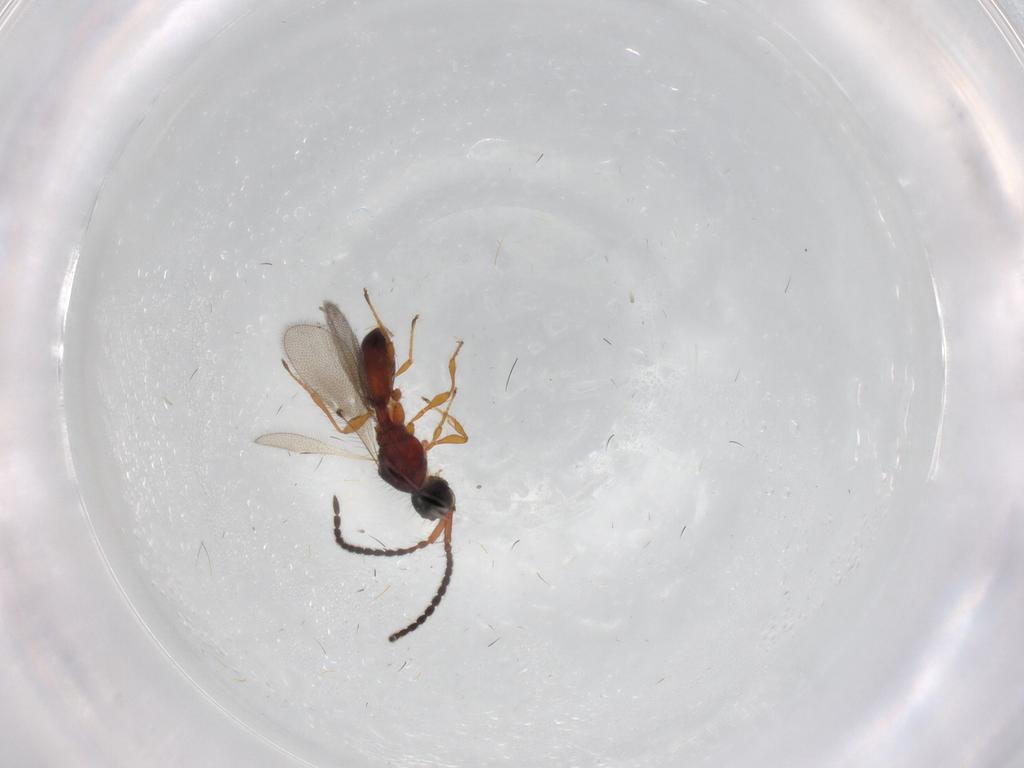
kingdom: Animalia
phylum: Arthropoda
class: Insecta
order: Hymenoptera
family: Diapriidae
